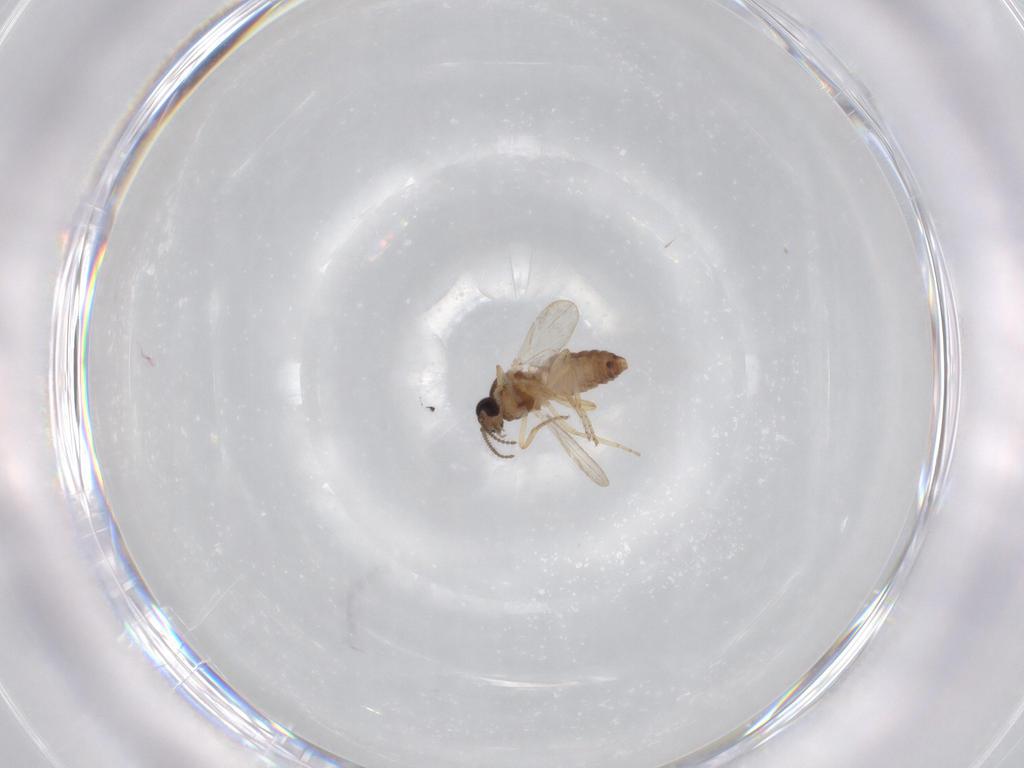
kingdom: Animalia
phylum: Arthropoda
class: Insecta
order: Diptera
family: Ceratopogonidae
